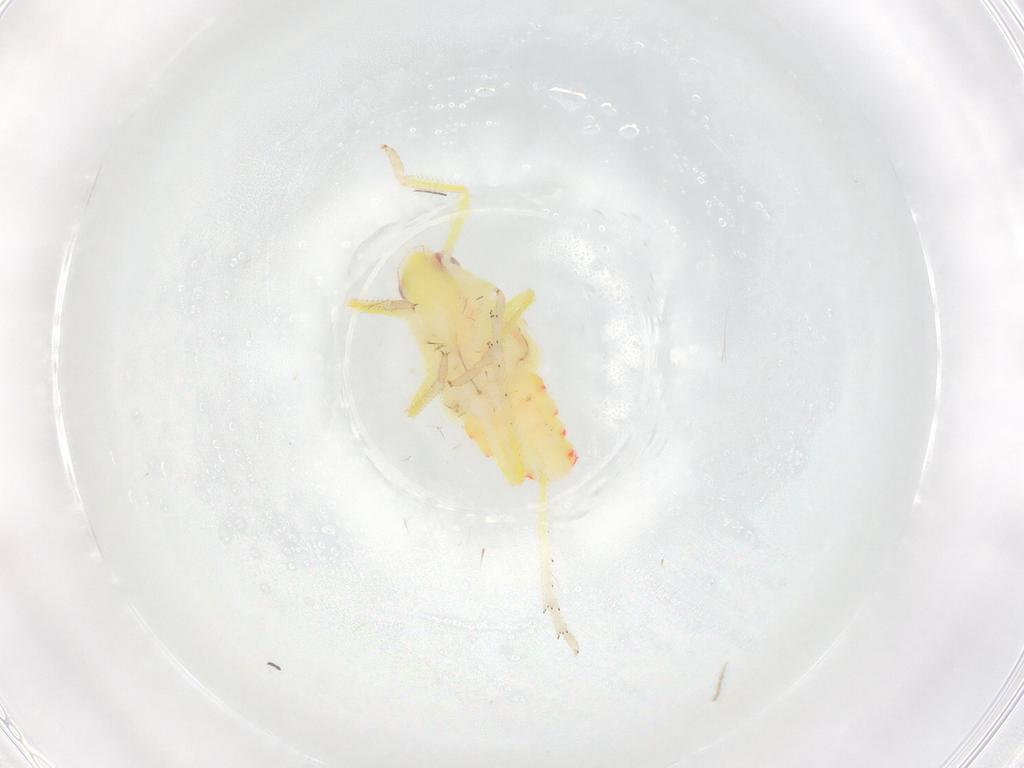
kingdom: Animalia
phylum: Arthropoda
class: Insecta
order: Hemiptera
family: Tropiduchidae
